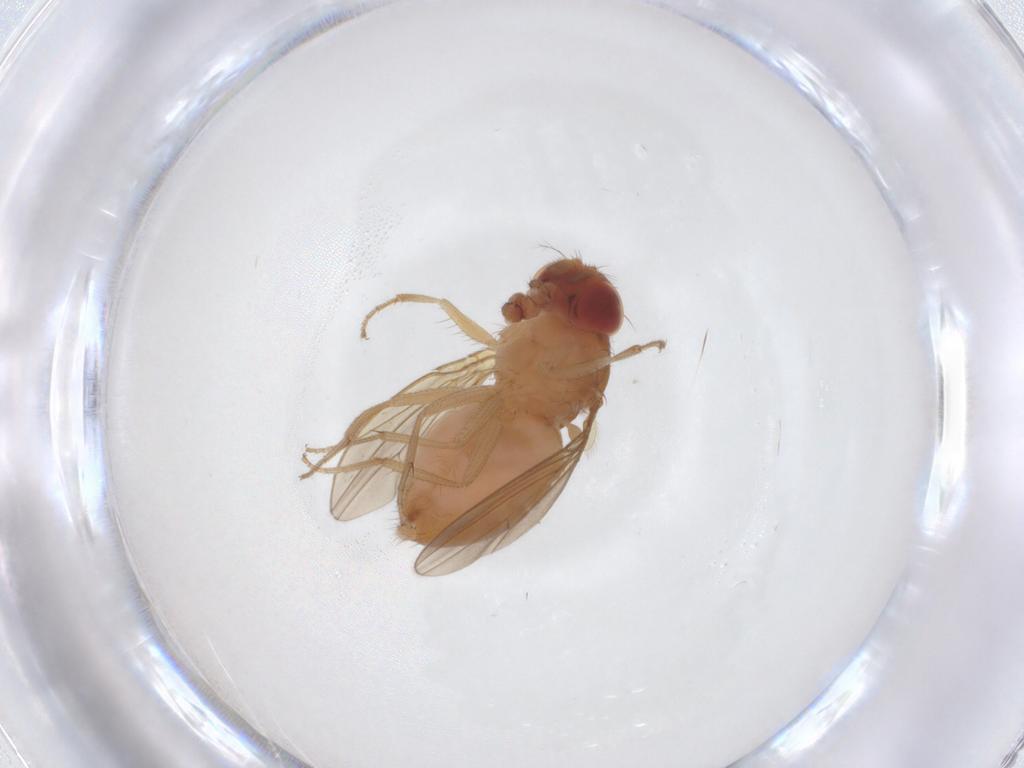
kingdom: Animalia
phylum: Arthropoda
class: Insecta
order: Diptera
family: Drosophilidae
